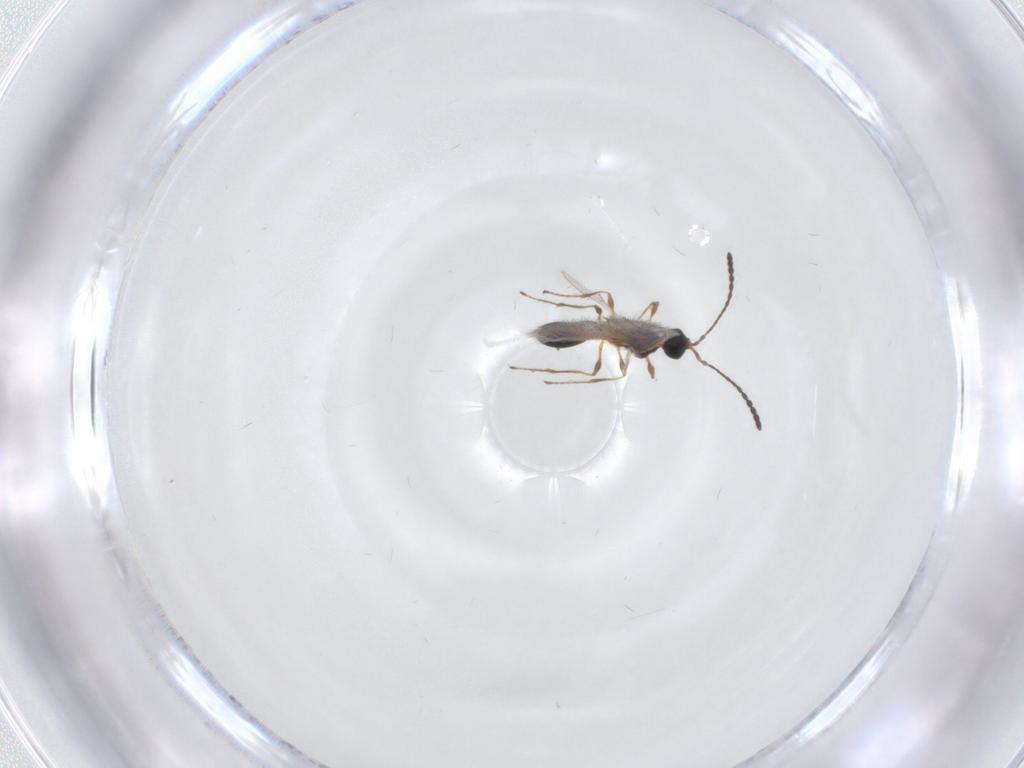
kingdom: Animalia
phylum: Arthropoda
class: Insecta
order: Hymenoptera
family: Diapriidae
